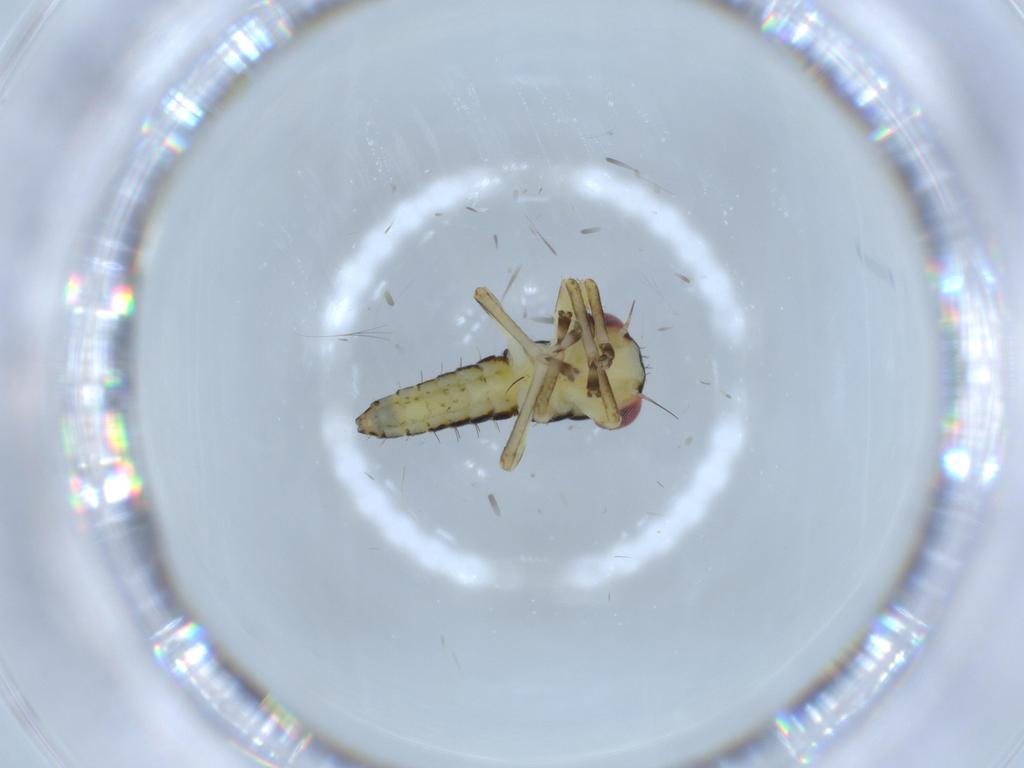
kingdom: Animalia
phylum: Arthropoda
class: Insecta
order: Hemiptera
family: Cicadellidae
